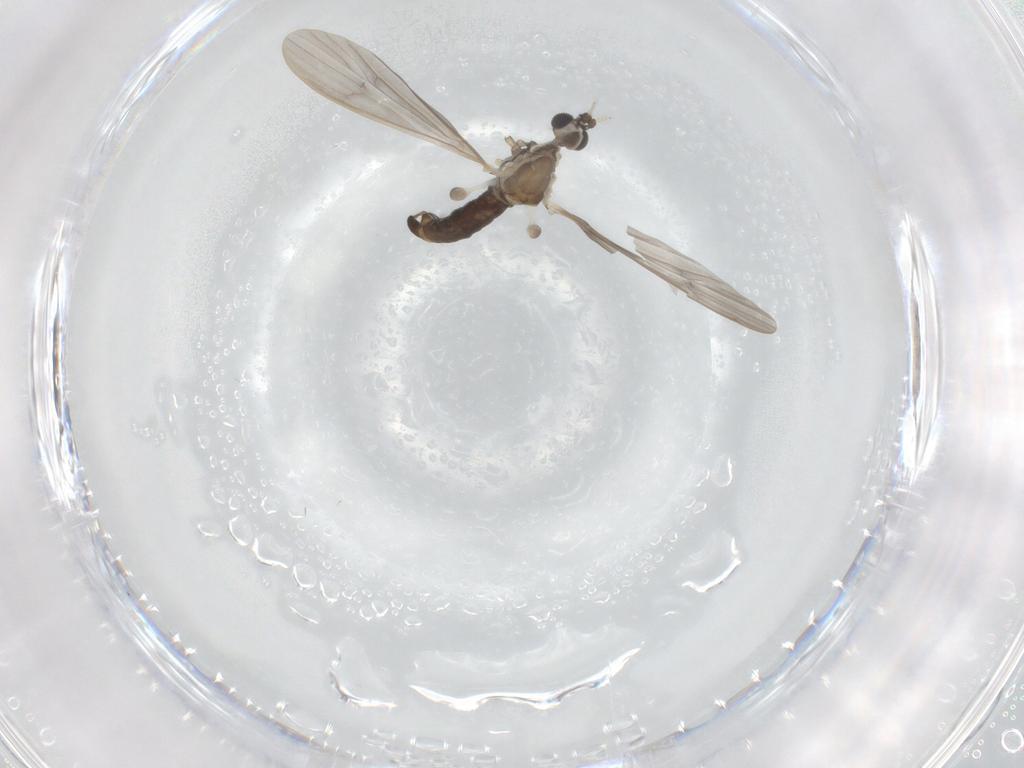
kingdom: Animalia
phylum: Arthropoda
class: Insecta
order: Diptera
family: Limoniidae
